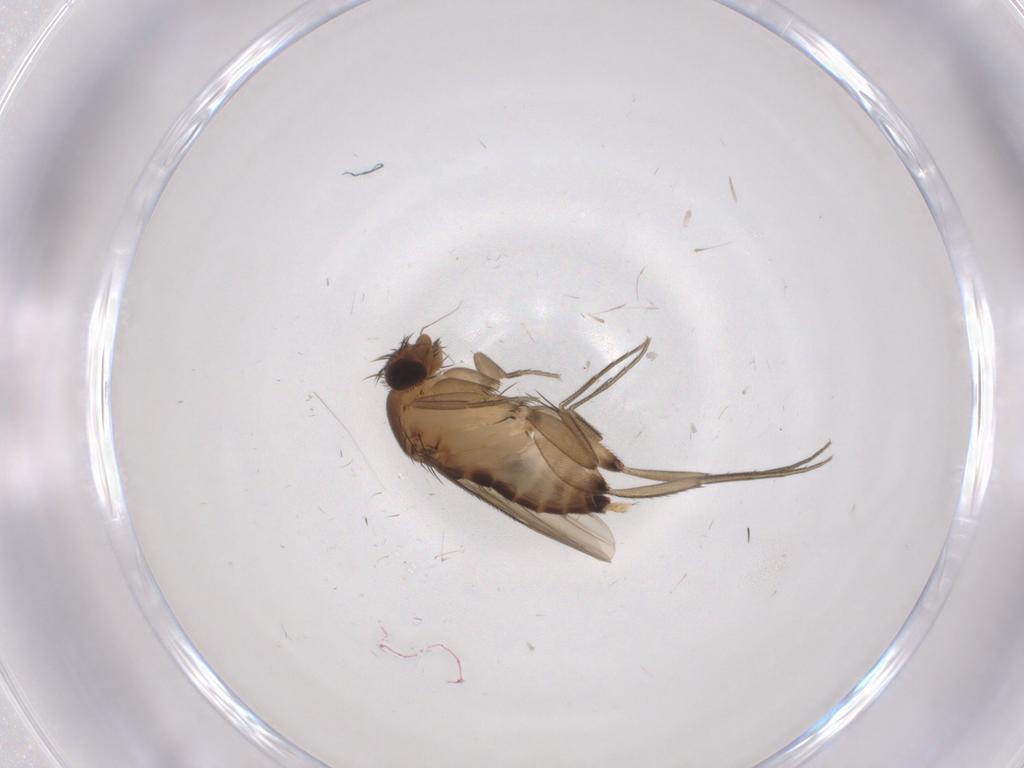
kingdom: Animalia
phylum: Arthropoda
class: Insecta
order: Diptera
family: Phoridae
